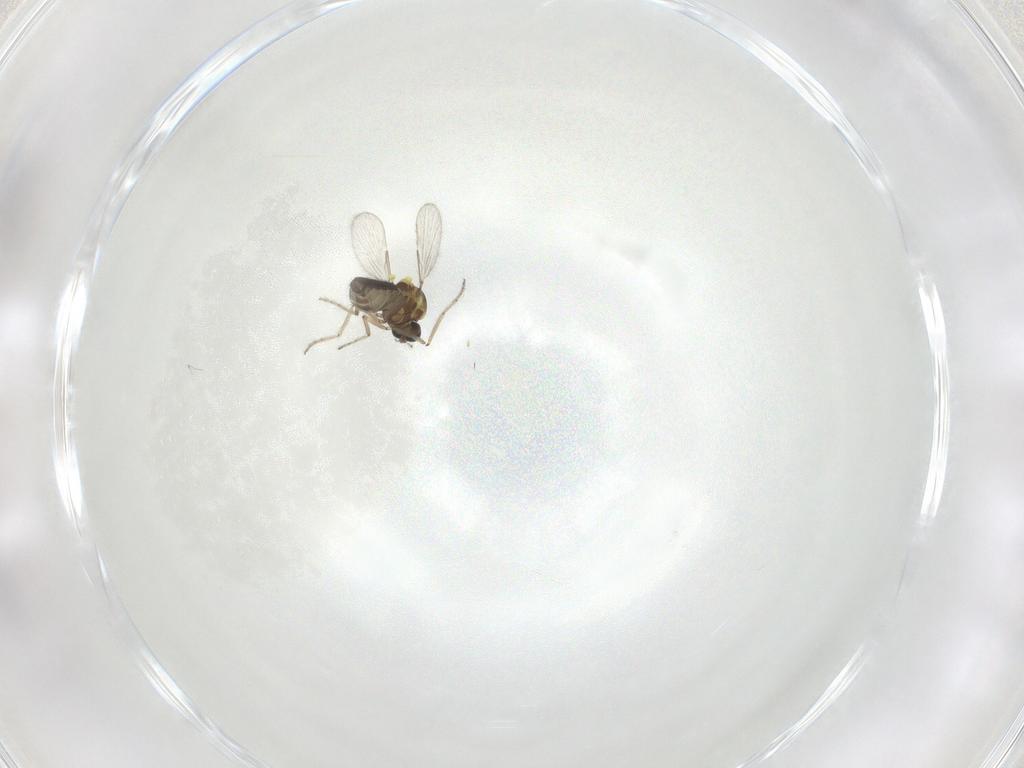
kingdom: Animalia
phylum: Arthropoda
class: Insecta
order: Diptera
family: Ceratopogonidae
